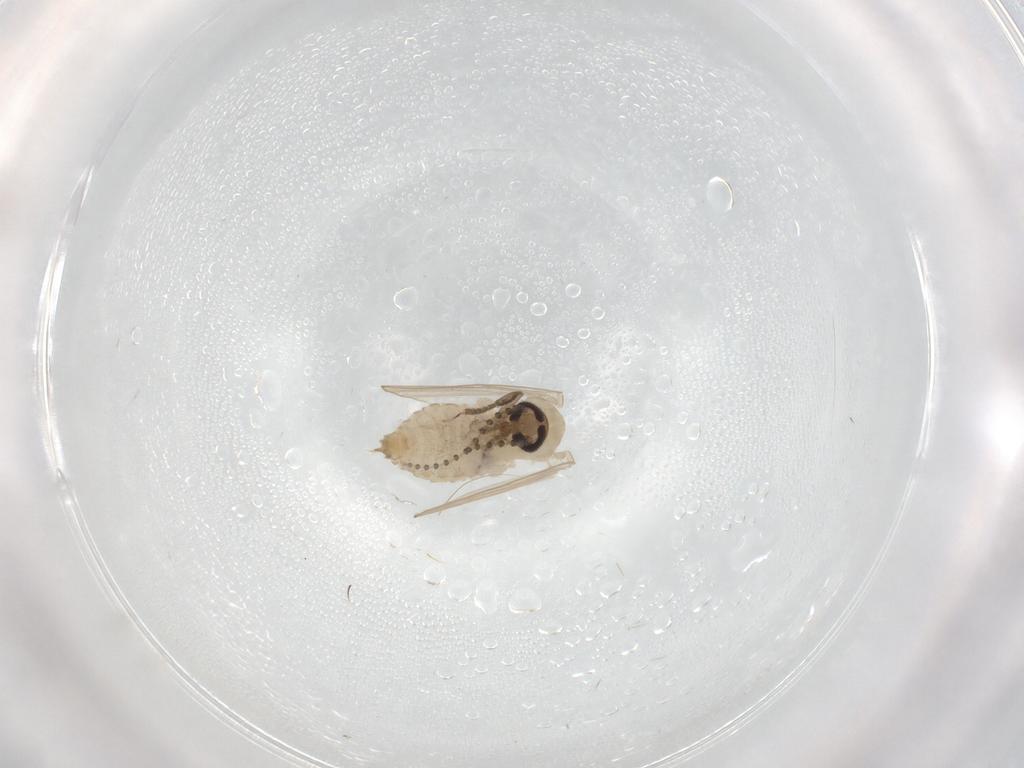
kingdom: Animalia
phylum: Arthropoda
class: Insecta
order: Diptera
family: Psychodidae
